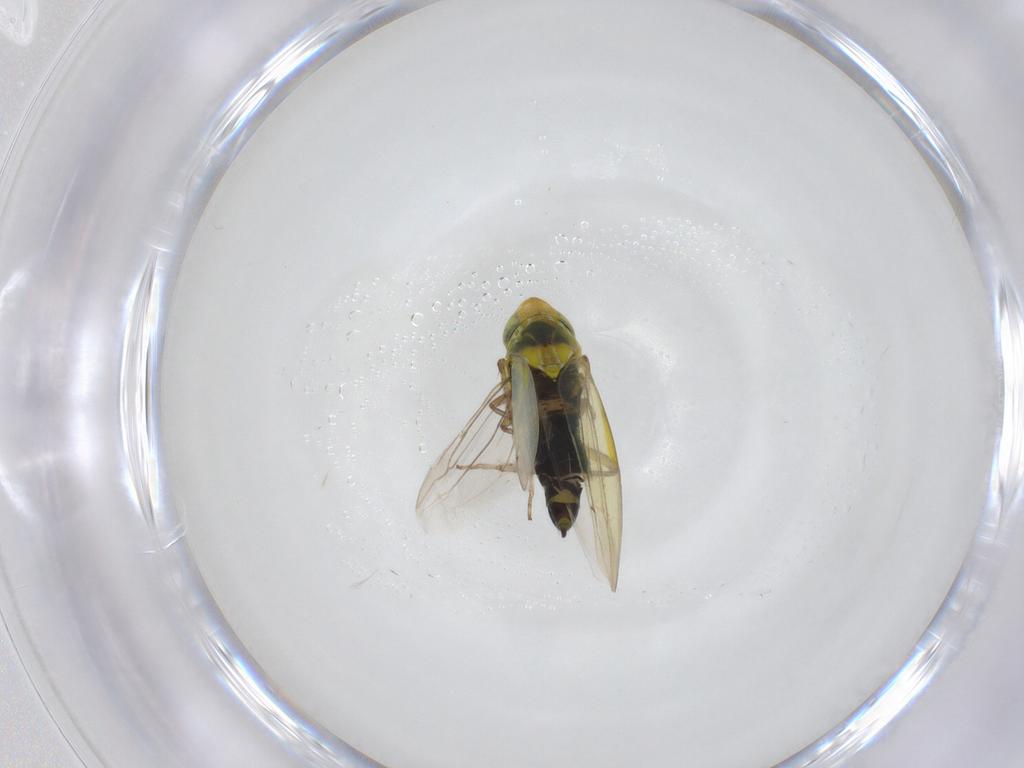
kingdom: Animalia
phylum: Arthropoda
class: Insecta
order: Hemiptera
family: Cicadellidae
